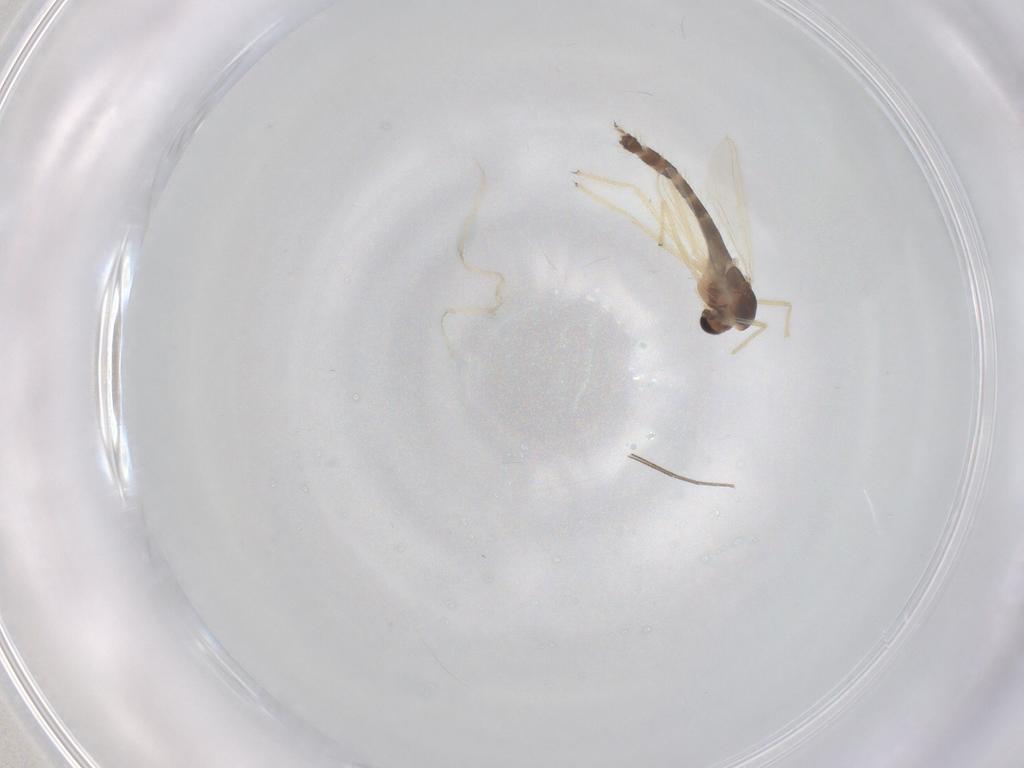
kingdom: Animalia
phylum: Arthropoda
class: Insecta
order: Diptera
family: Chironomidae
